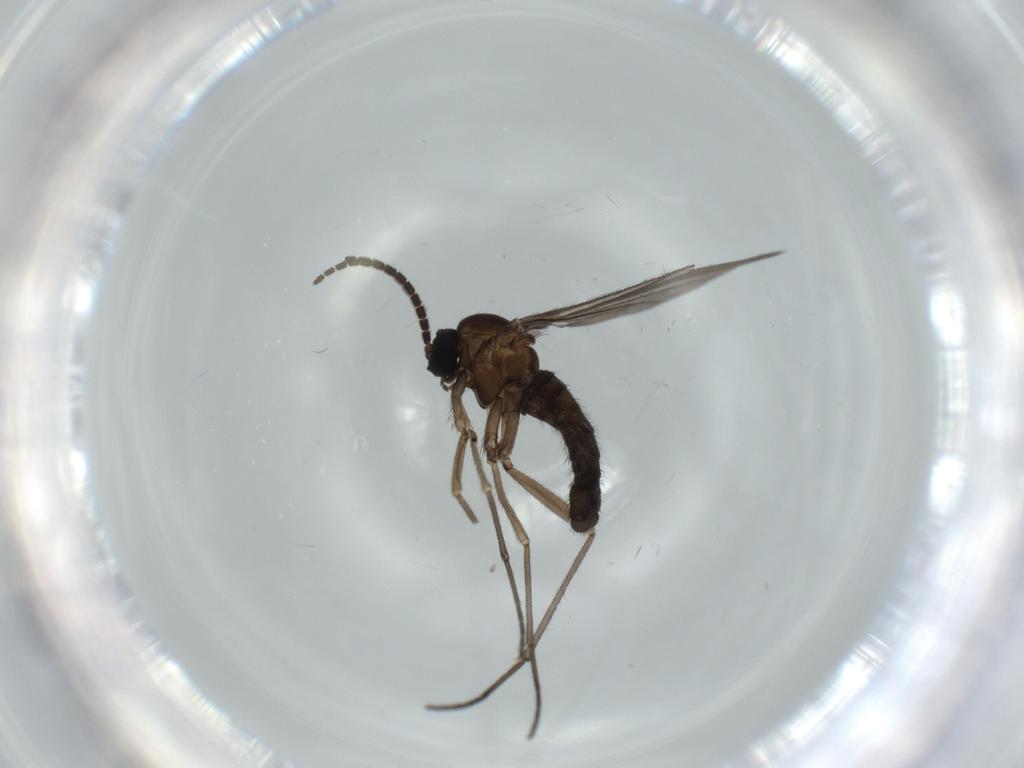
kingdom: Animalia
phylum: Arthropoda
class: Insecta
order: Diptera
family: Sciaridae
